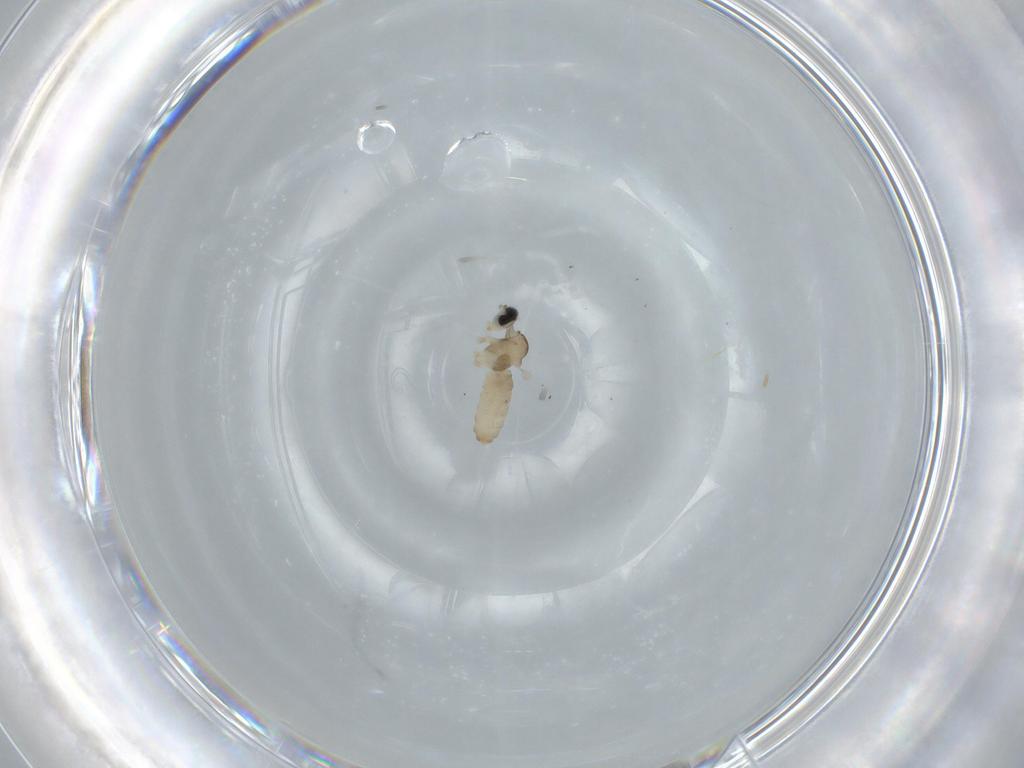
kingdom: Animalia
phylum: Arthropoda
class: Insecta
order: Diptera
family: Cecidomyiidae
